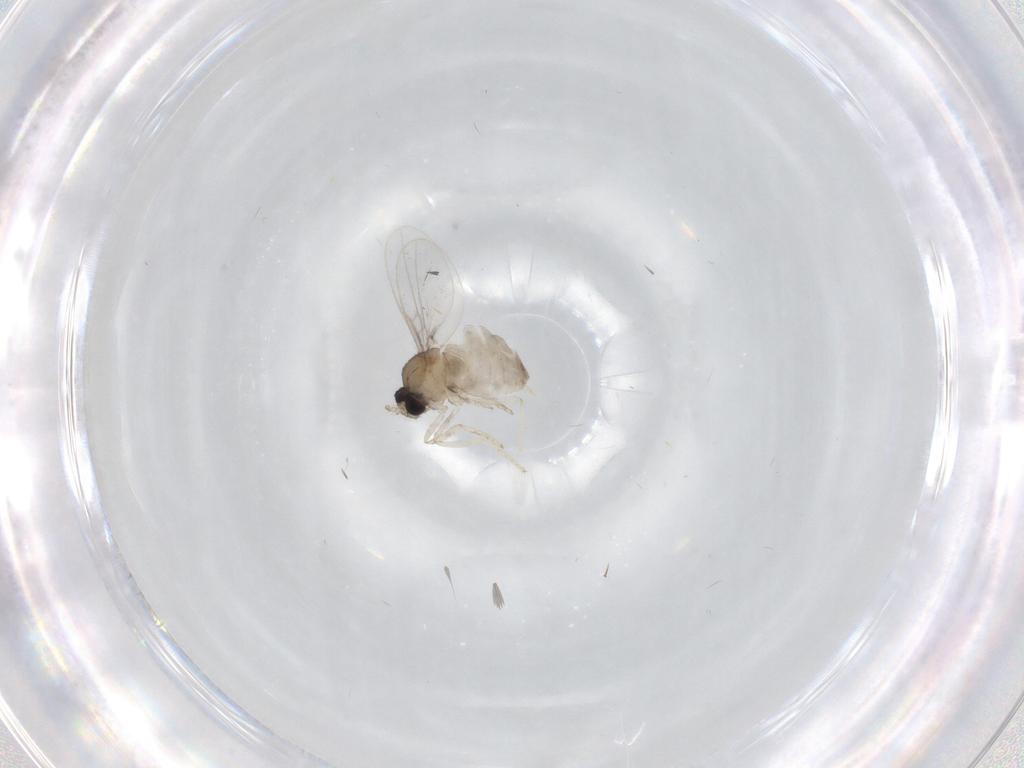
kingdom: Animalia
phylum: Arthropoda
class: Insecta
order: Diptera
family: Cecidomyiidae
